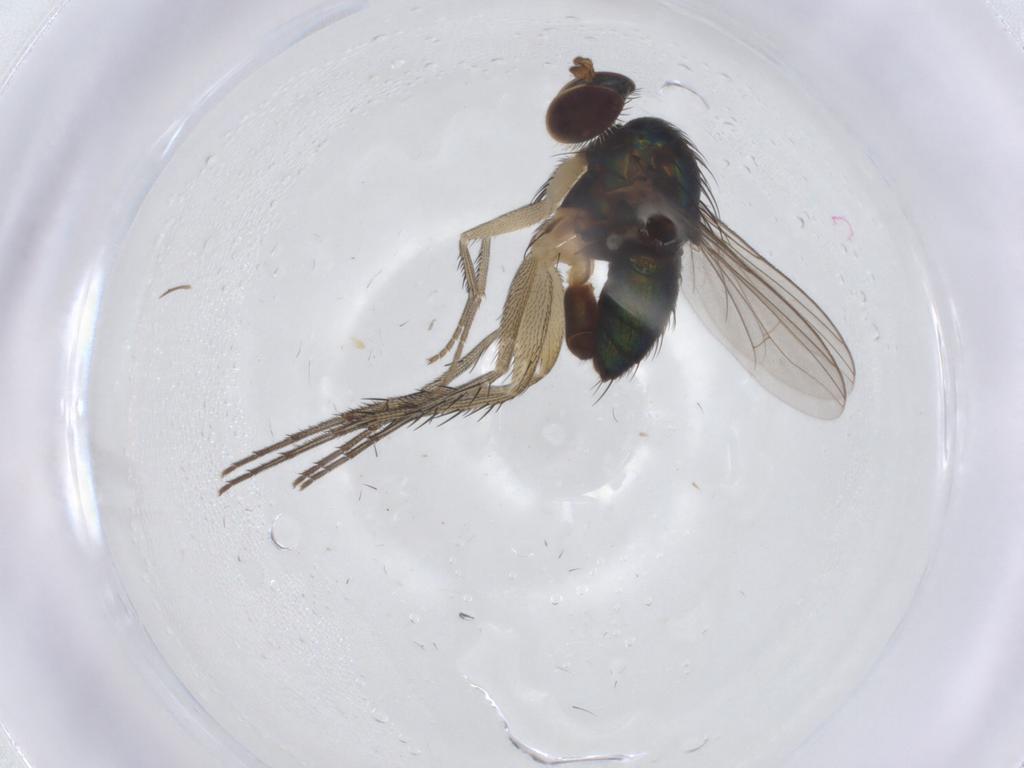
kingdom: Animalia
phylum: Arthropoda
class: Insecta
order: Diptera
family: Dolichopodidae
